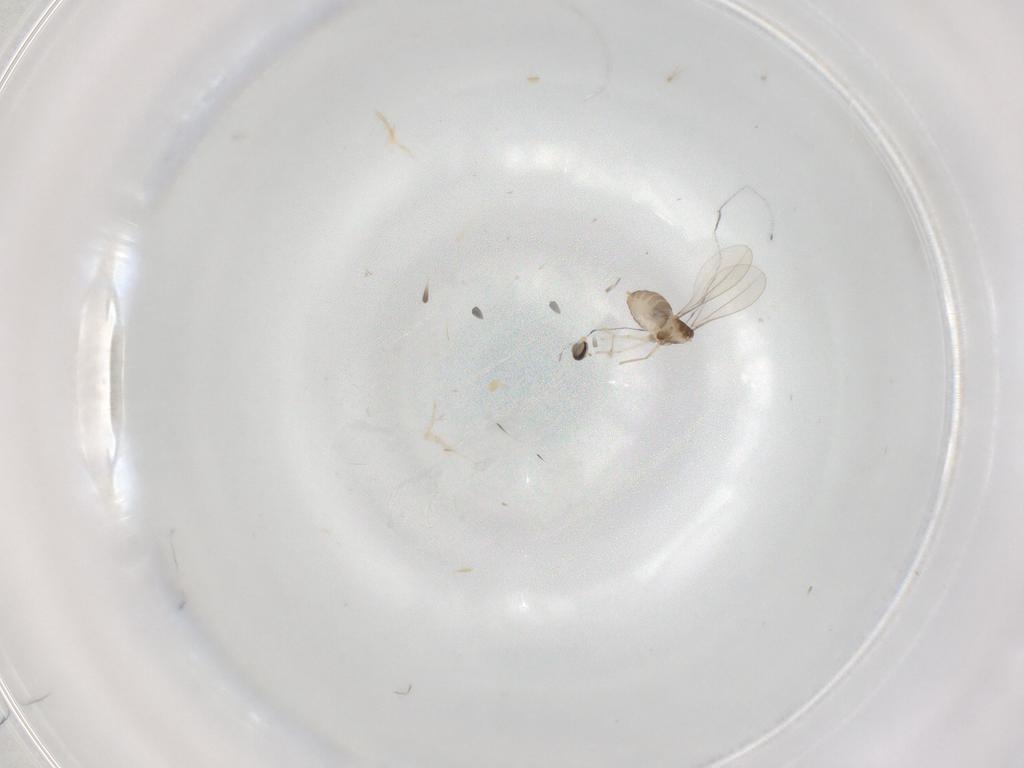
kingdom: Animalia
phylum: Arthropoda
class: Insecta
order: Diptera
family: Cecidomyiidae
